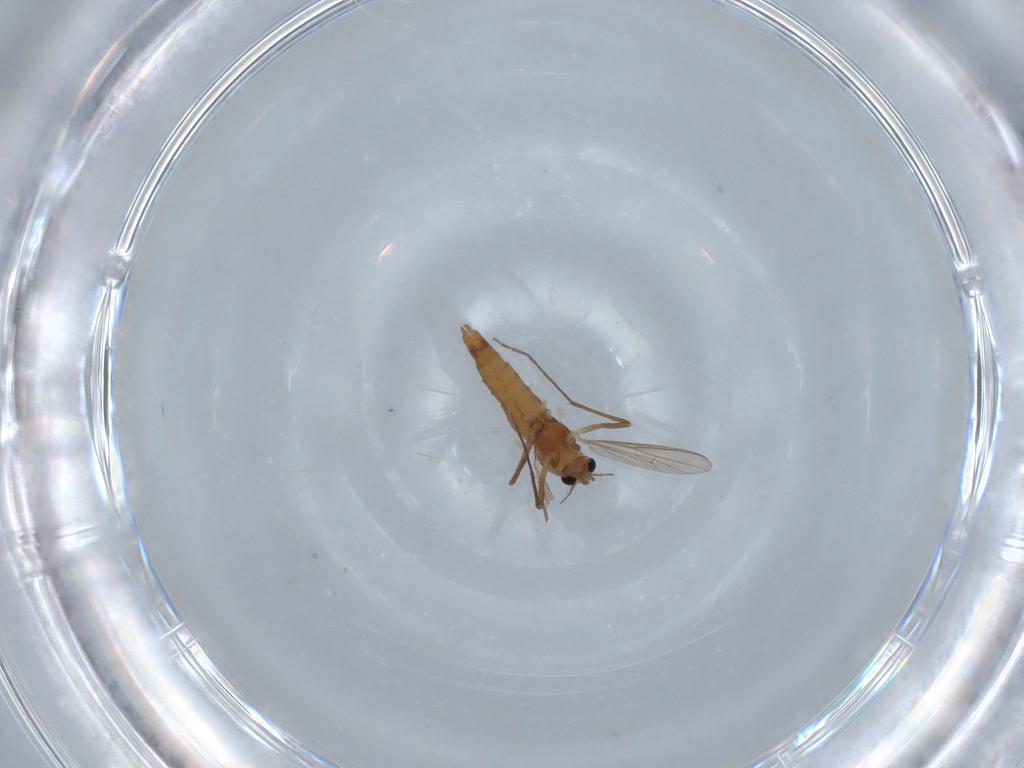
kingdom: Animalia
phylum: Arthropoda
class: Insecta
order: Diptera
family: Chironomidae
